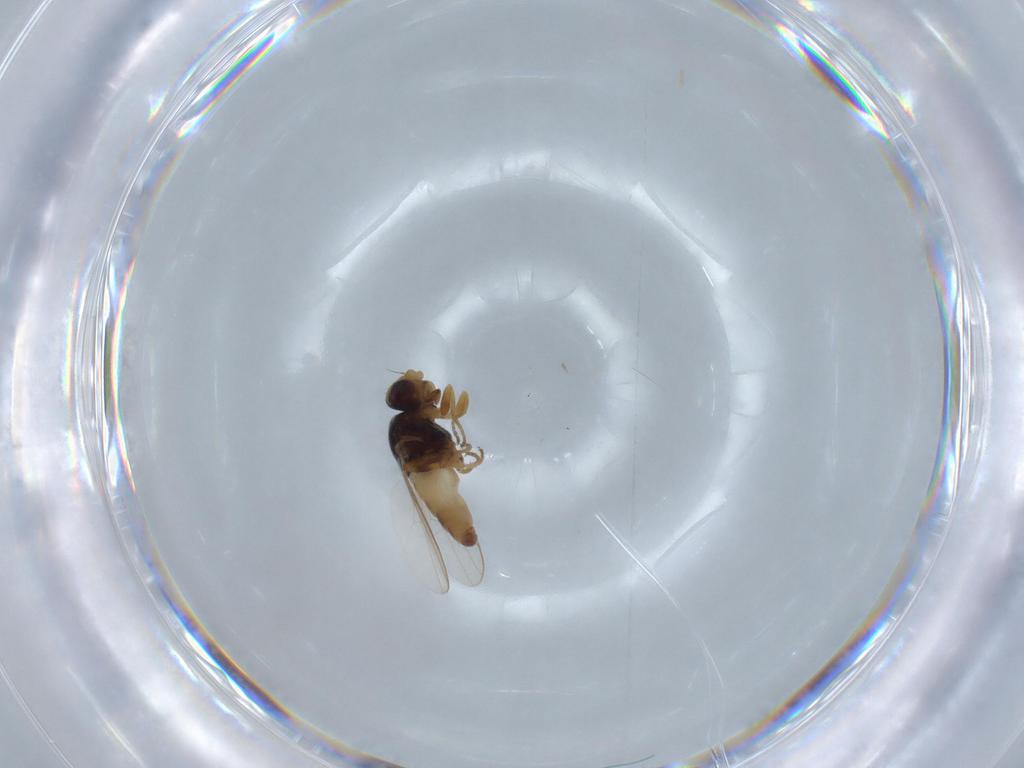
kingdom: Animalia
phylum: Arthropoda
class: Insecta
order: Diptera
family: Chloropidae
